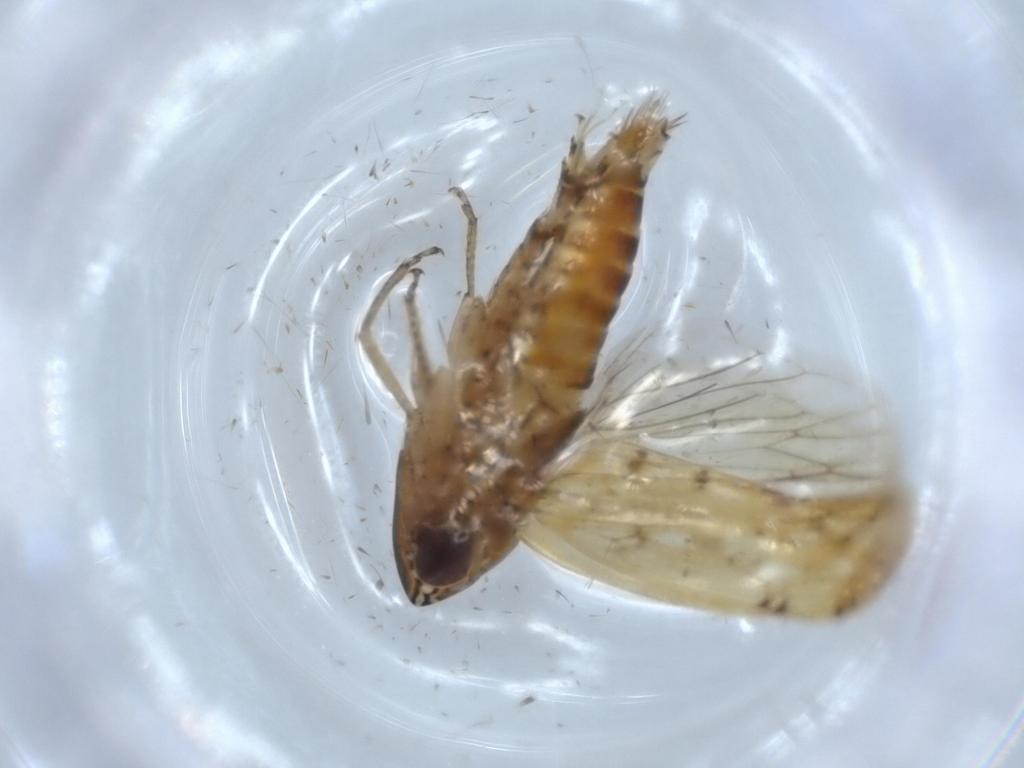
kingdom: Animalia
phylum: Arthropoda
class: Insecta
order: Hemiptera
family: Cicadellidae
